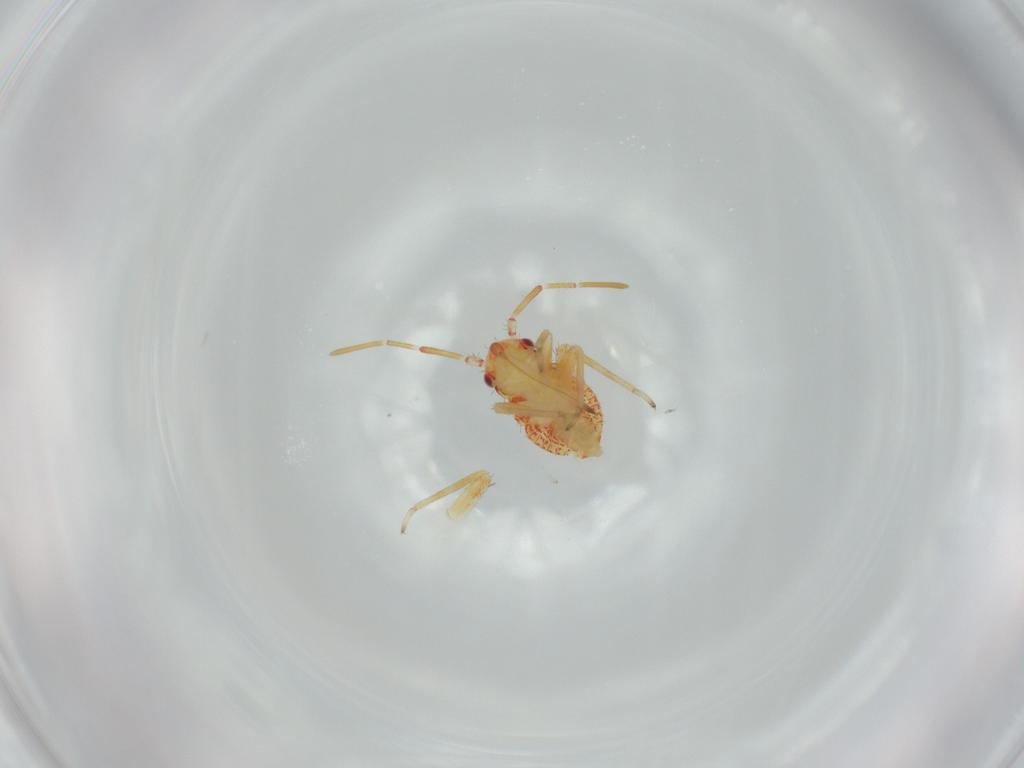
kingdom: Animalia
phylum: Arthropoda
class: Insecta
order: Hemiptera
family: Miridae
